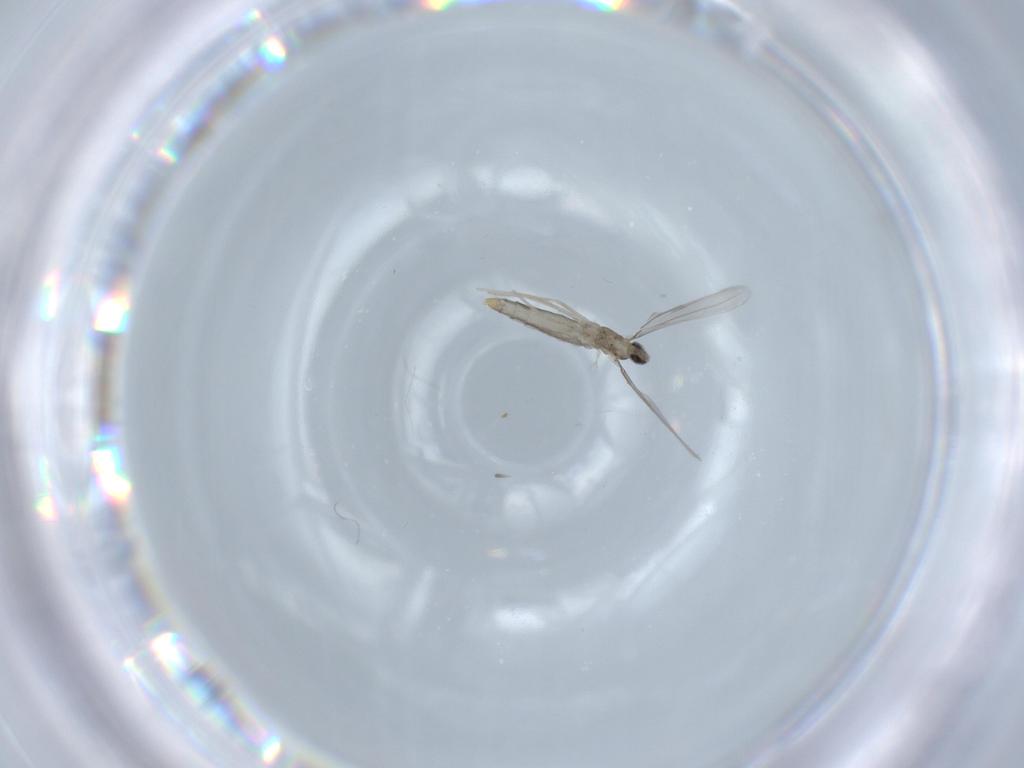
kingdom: Animalia
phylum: Arthropoda
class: Insecta
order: Diptera
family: Cecidomyiidae
